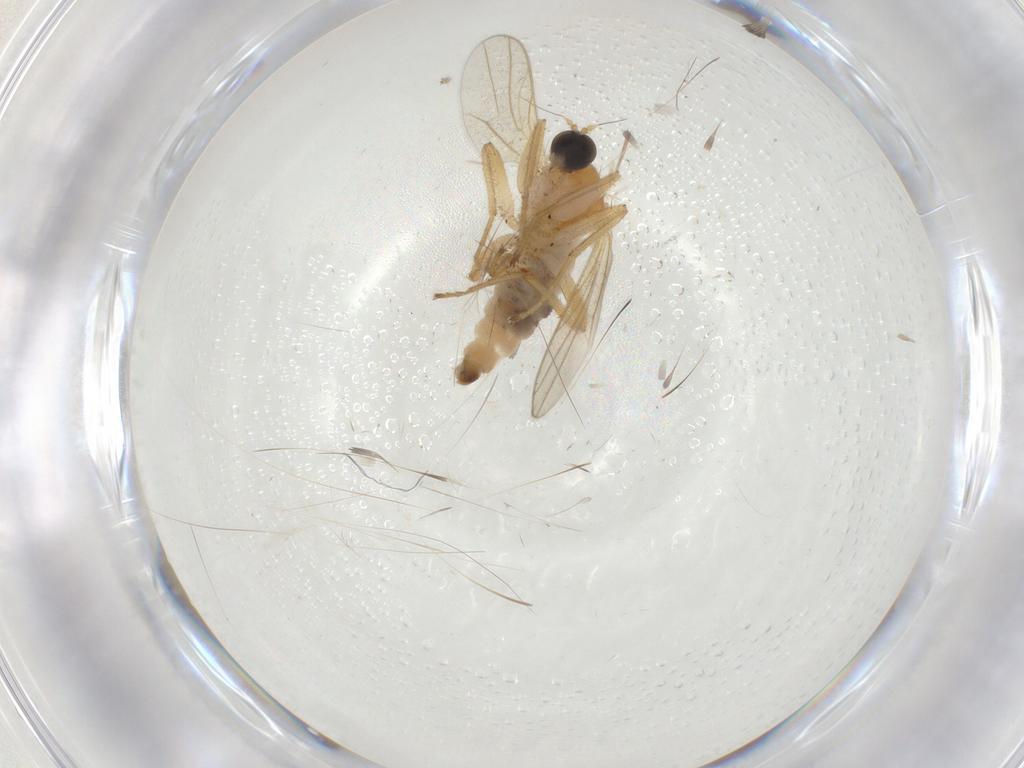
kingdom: Animalia
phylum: Arthropoda
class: Insecta
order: Diptera
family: Hybotidae
